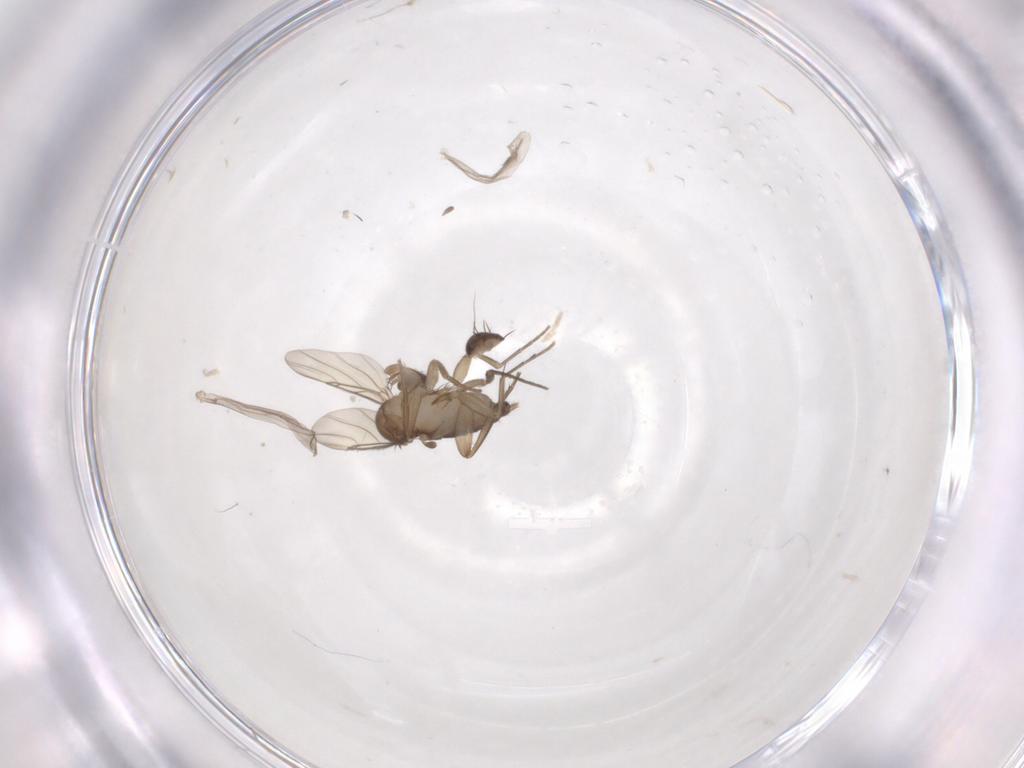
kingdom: Animalia
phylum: Arthropoda
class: Insecta
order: Diptera
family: Phoridae
